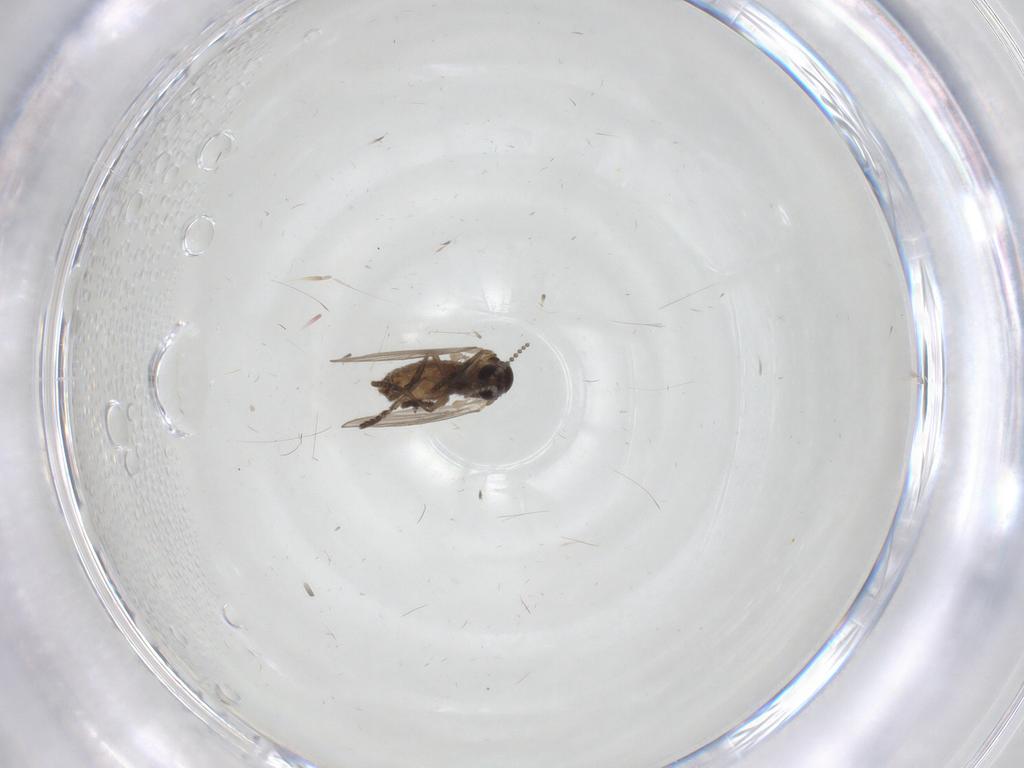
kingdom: Animalia
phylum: Arthropoda
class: Insecta
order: Diptera
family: Psychodidae
